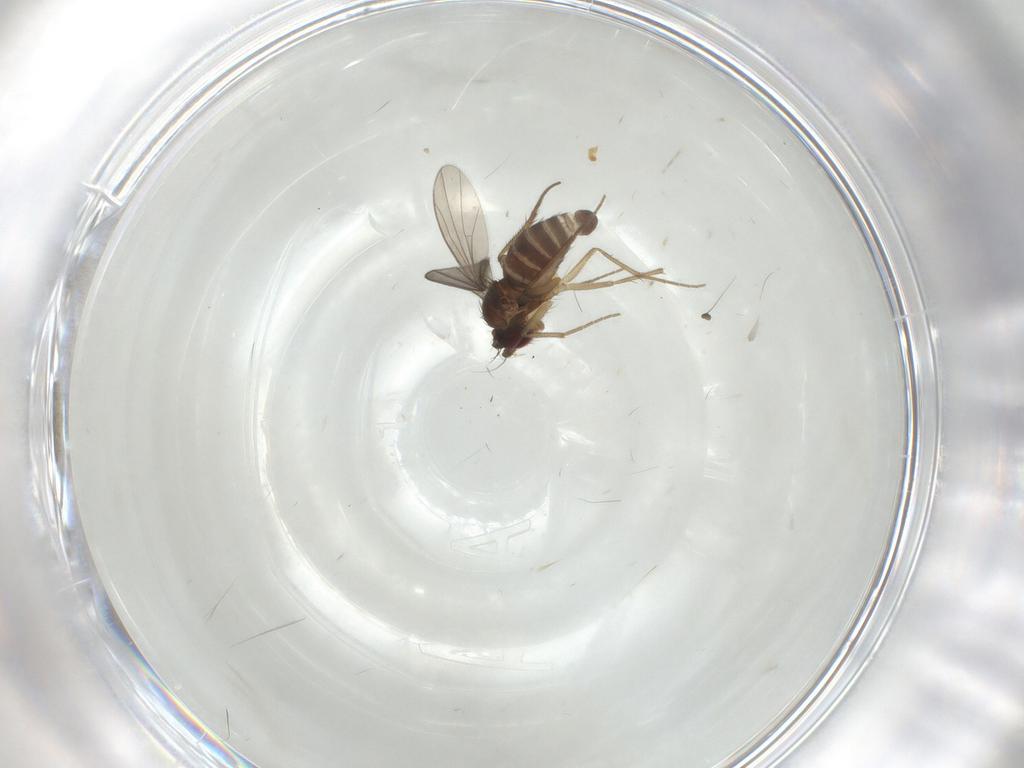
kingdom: Animalia
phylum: Arthropoda
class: Insecta
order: Diptera
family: Dolichopodidae
